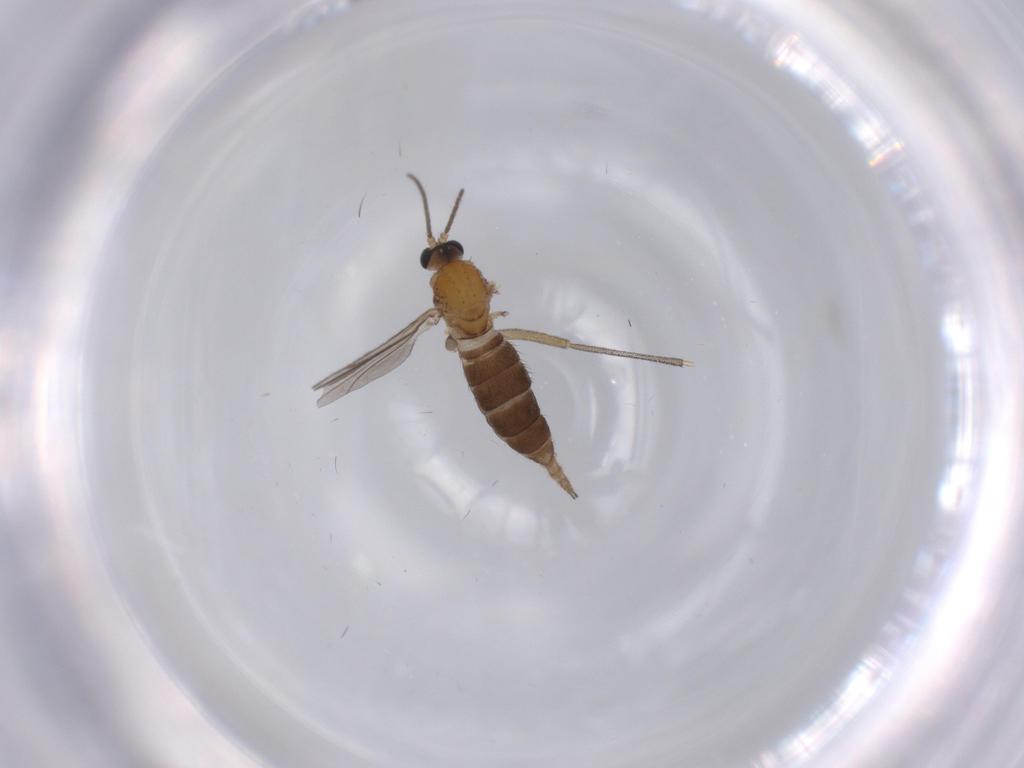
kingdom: Animalia
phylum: Arthropoda
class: Insecta
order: Diptera
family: Sciaridae
